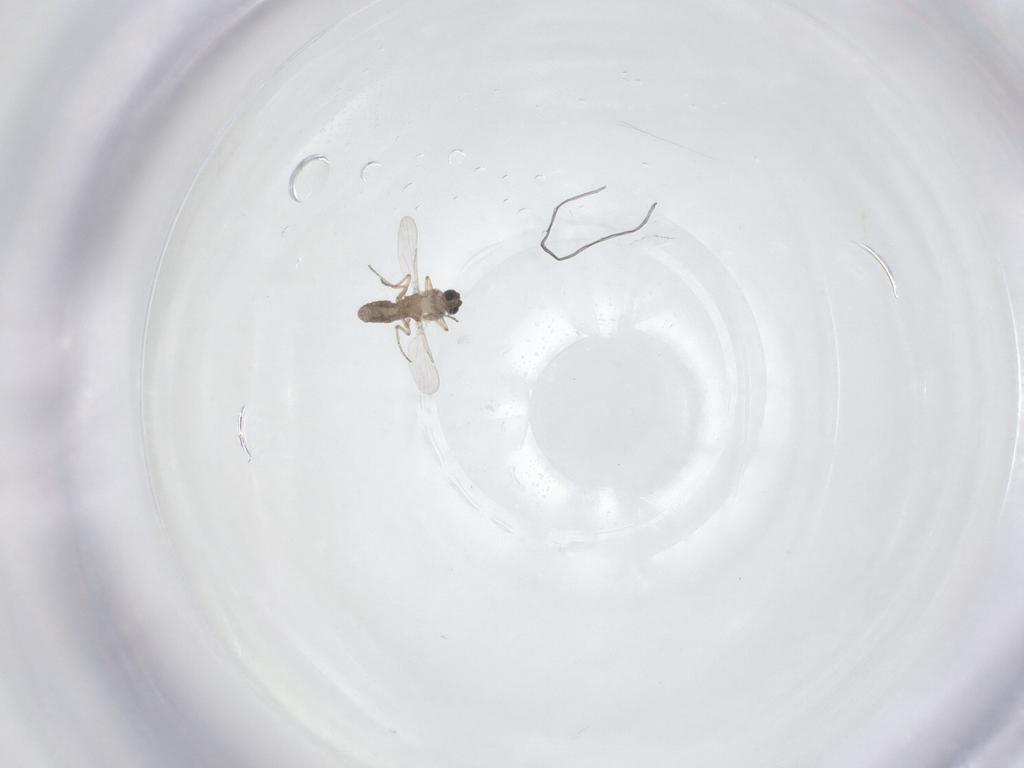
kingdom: Animalia
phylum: Arthropoda
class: Insecta
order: Diptera
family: Ceratopogonidae
